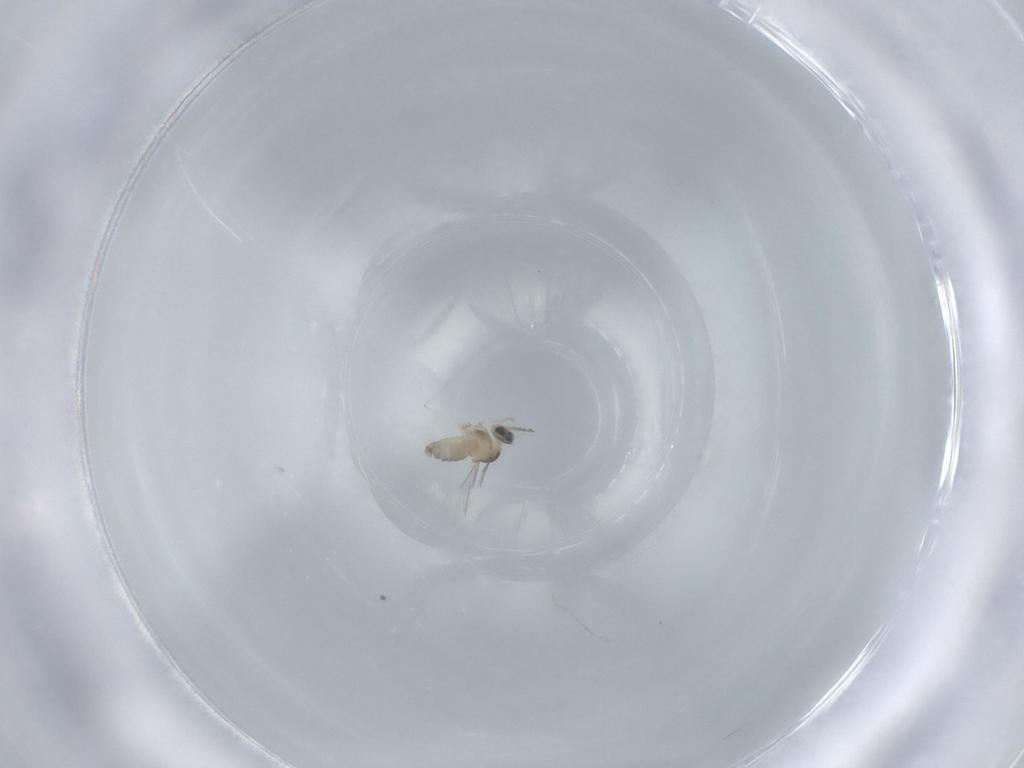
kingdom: Animalia
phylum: Arthropoda
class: Insecta
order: Diptera
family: Cecidomyiidae
